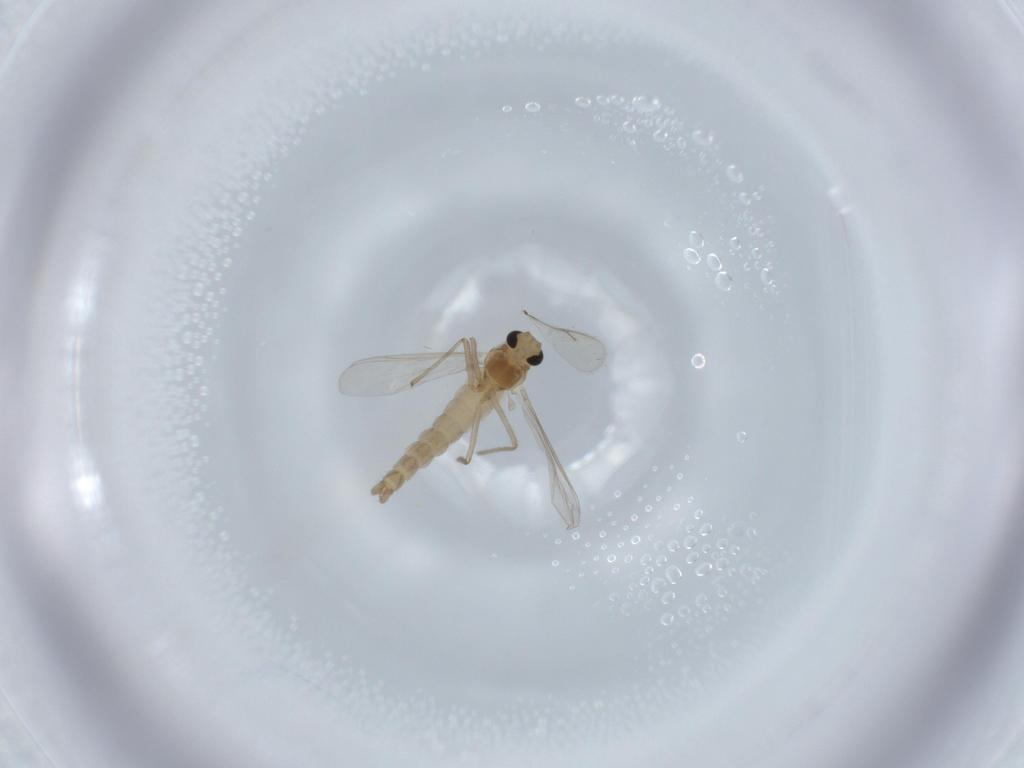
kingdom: Animalia
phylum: Arthropoda
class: Insecta
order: Diptera
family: Chironomidae
